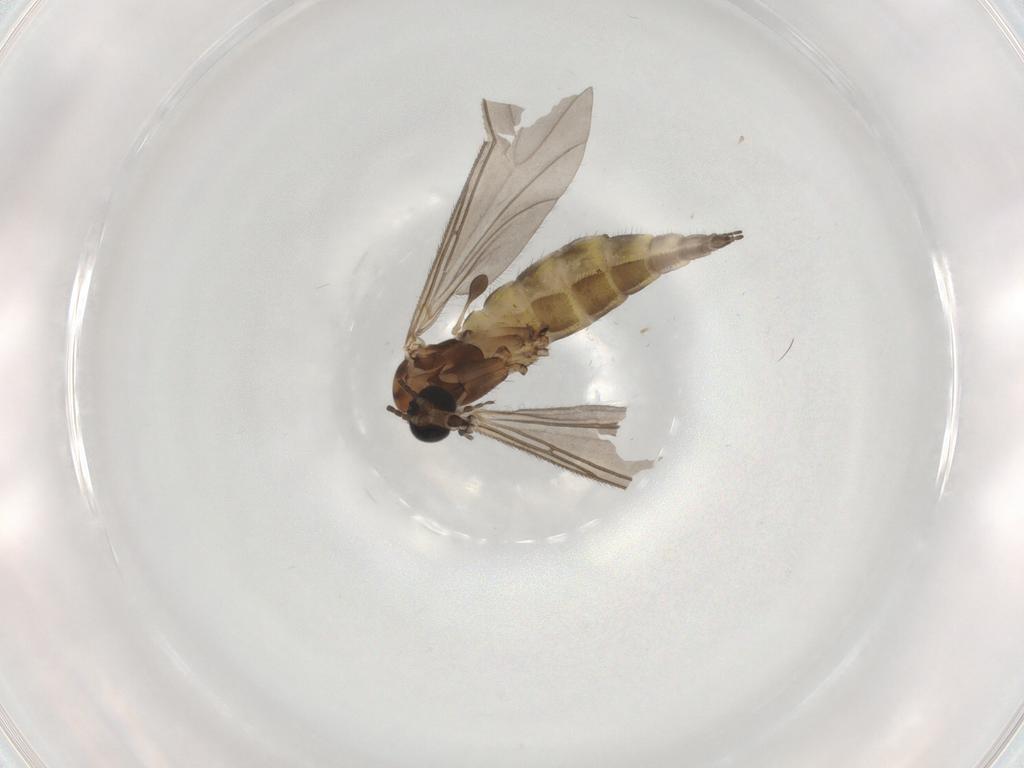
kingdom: Animalia
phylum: Arthropoda
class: Insecta
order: Diptera
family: Sciaridae
